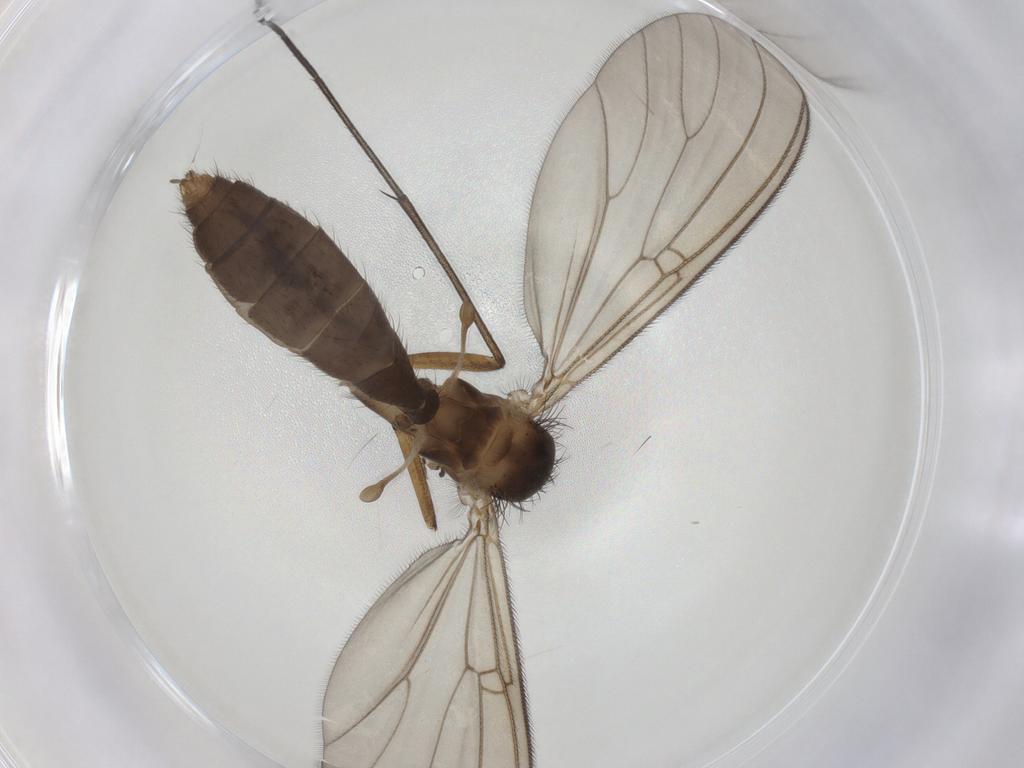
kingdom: Animalia
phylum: Arthropoda
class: Insecta
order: Diptera
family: Mycetophilidae
